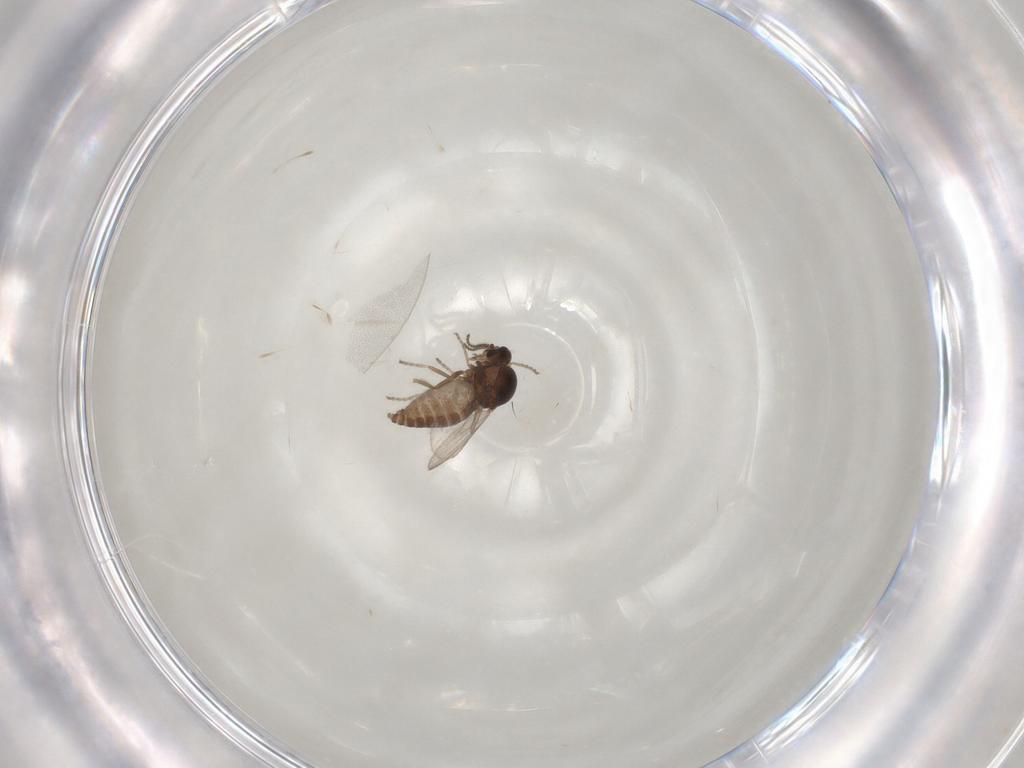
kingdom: Animalia
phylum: Arthropoda
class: Insecta
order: Diptera
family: Ceratopogonidae
